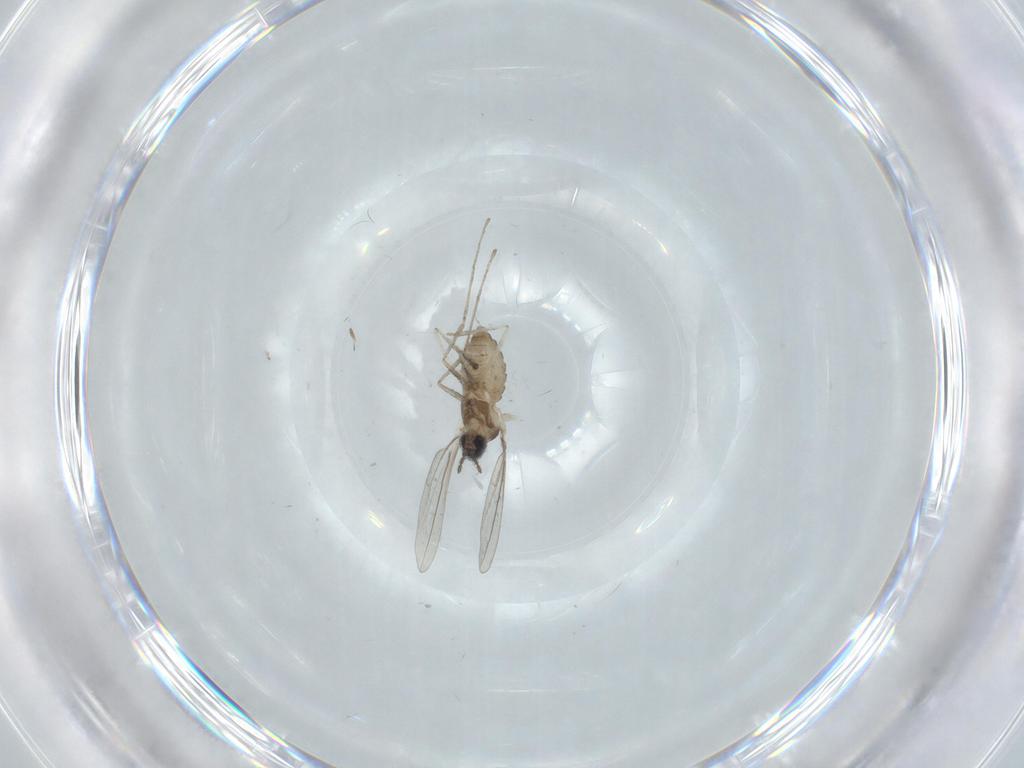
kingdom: Animalia
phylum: Arthropoda
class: Insecta
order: Diptera
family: Cecidomyiidae
